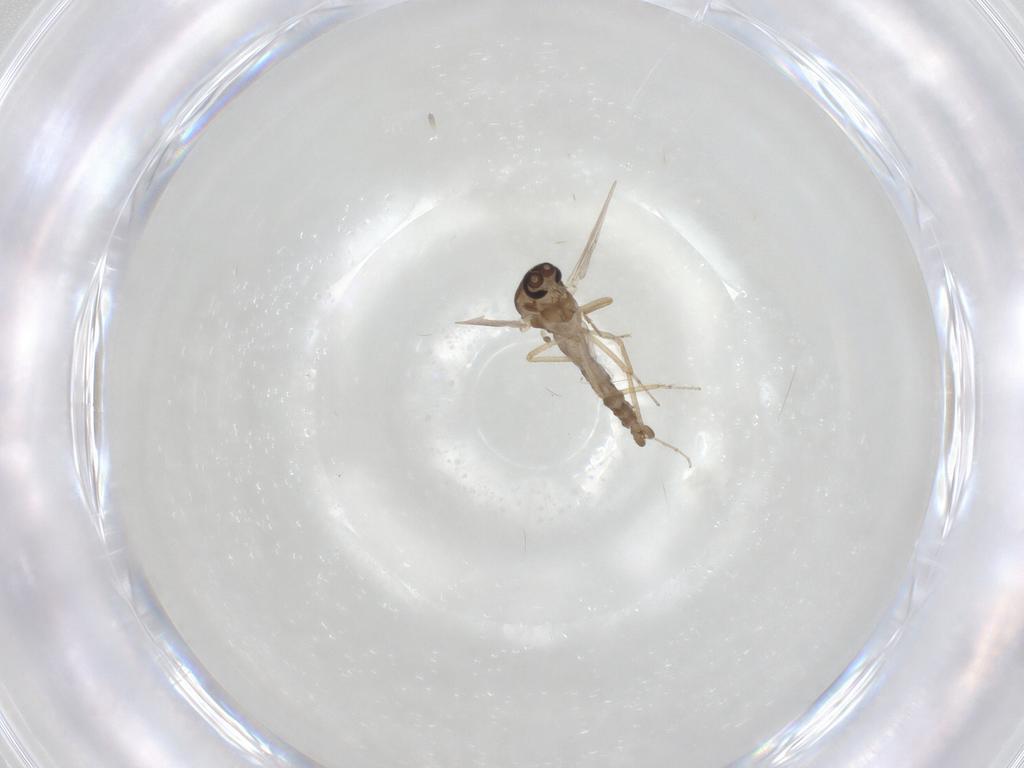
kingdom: Animalia
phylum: Arthropoda
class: Insecta
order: Diptera
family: Ceratopogonidae
